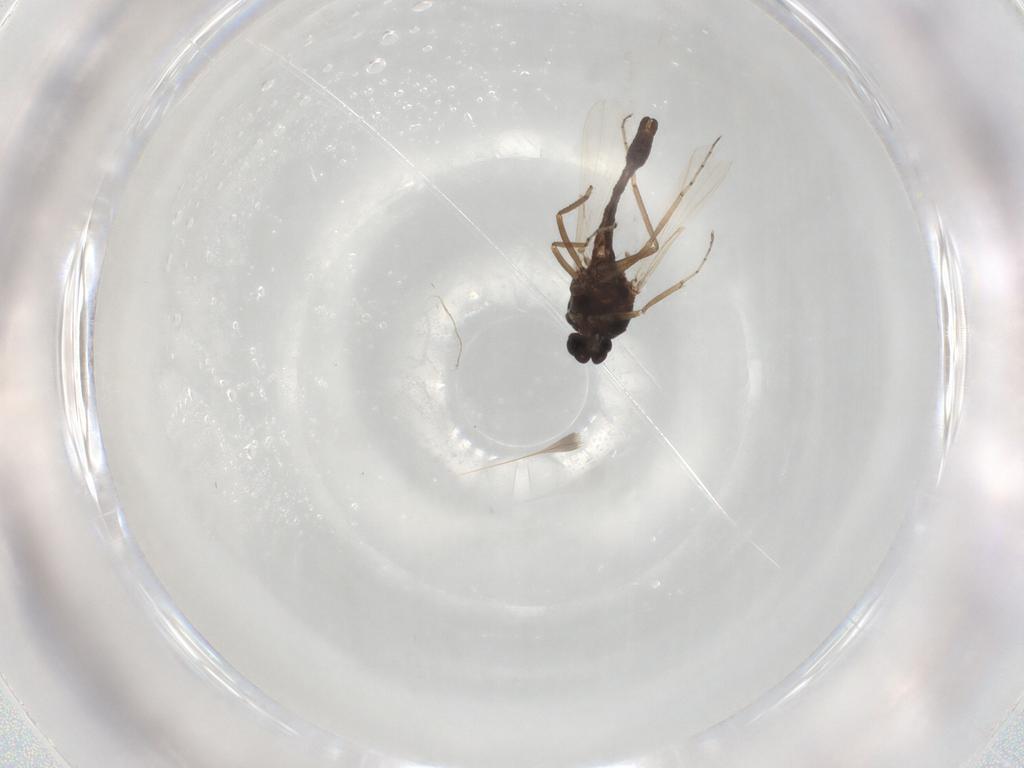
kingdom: Animalia
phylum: Arthropoda
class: Insecta
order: Diptera
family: Ceratopogonidae
